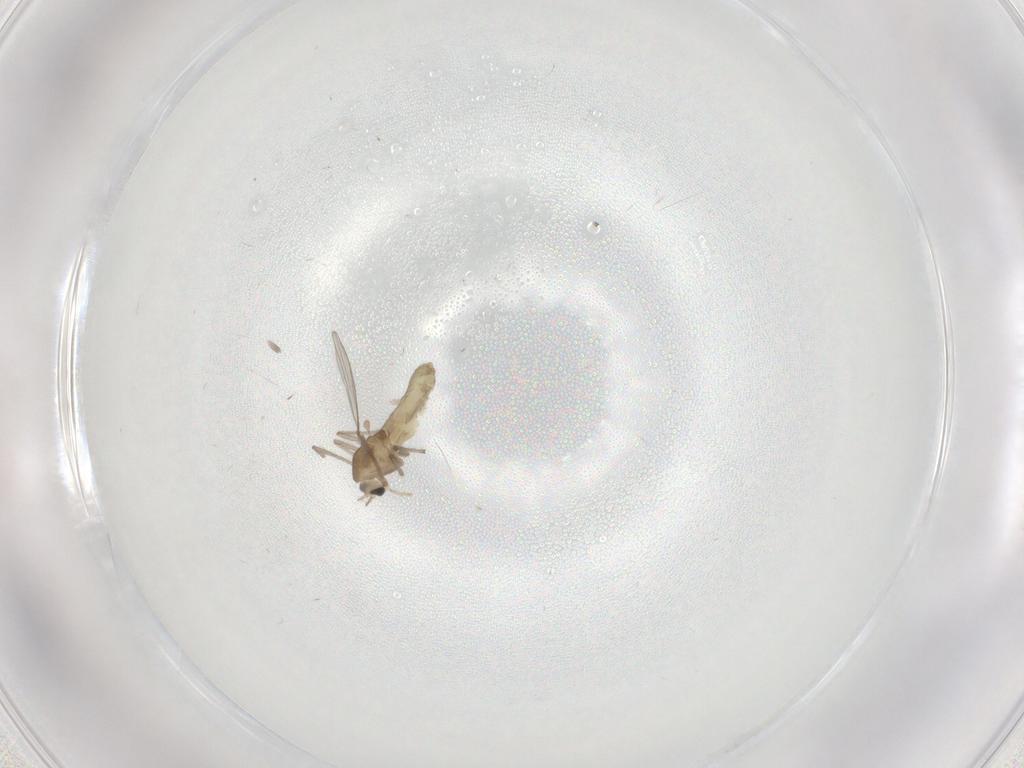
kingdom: Animalia
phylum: Arthropoda
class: Insecta
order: Diptera
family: Chironomidae
